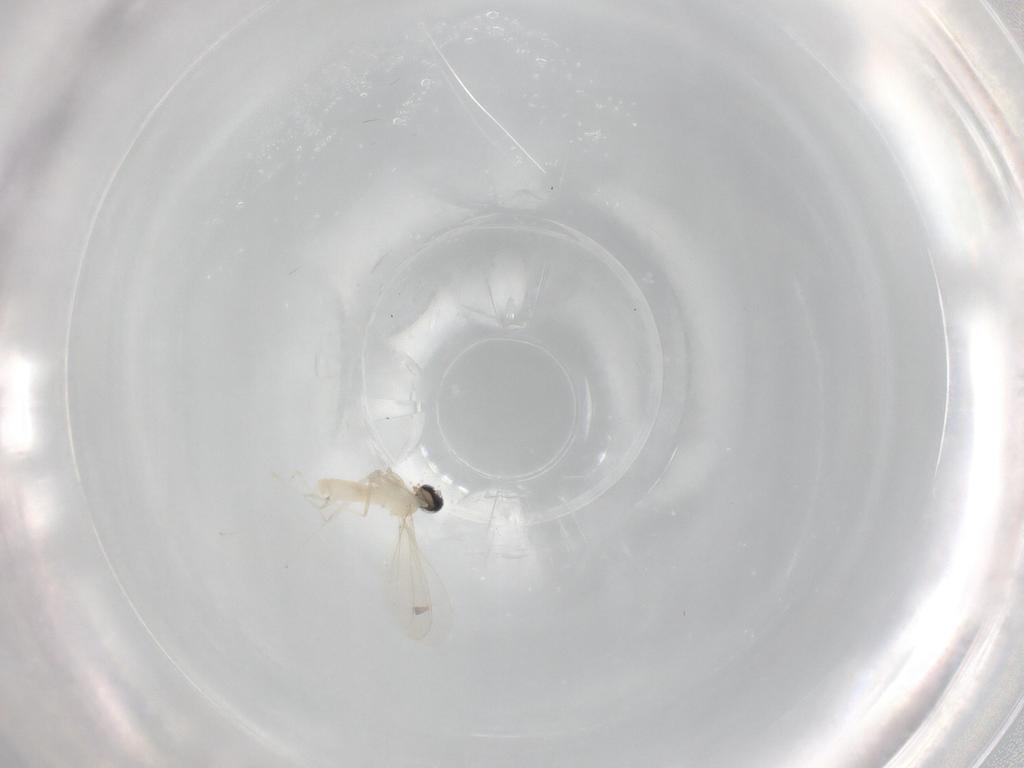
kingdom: Animalia
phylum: Arthropoda
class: Insecta
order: Diptera
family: Cecidomyiidae
